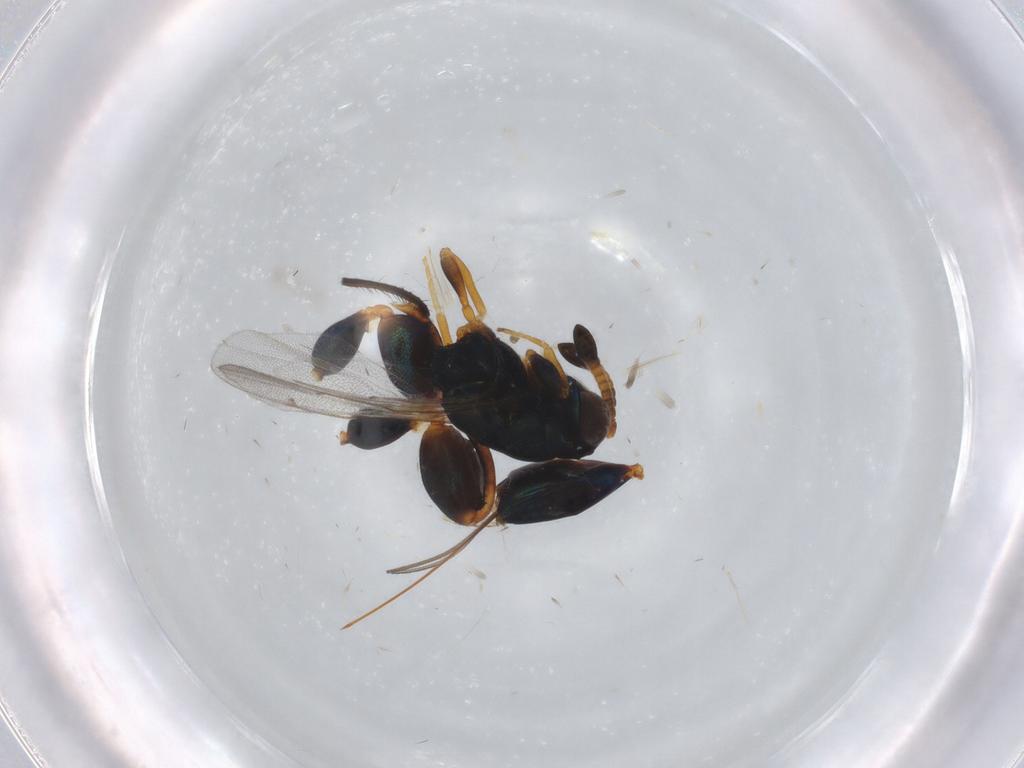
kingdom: Animalia
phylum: Arthropoda
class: Insecta
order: Hymenoptera
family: Torymidae
